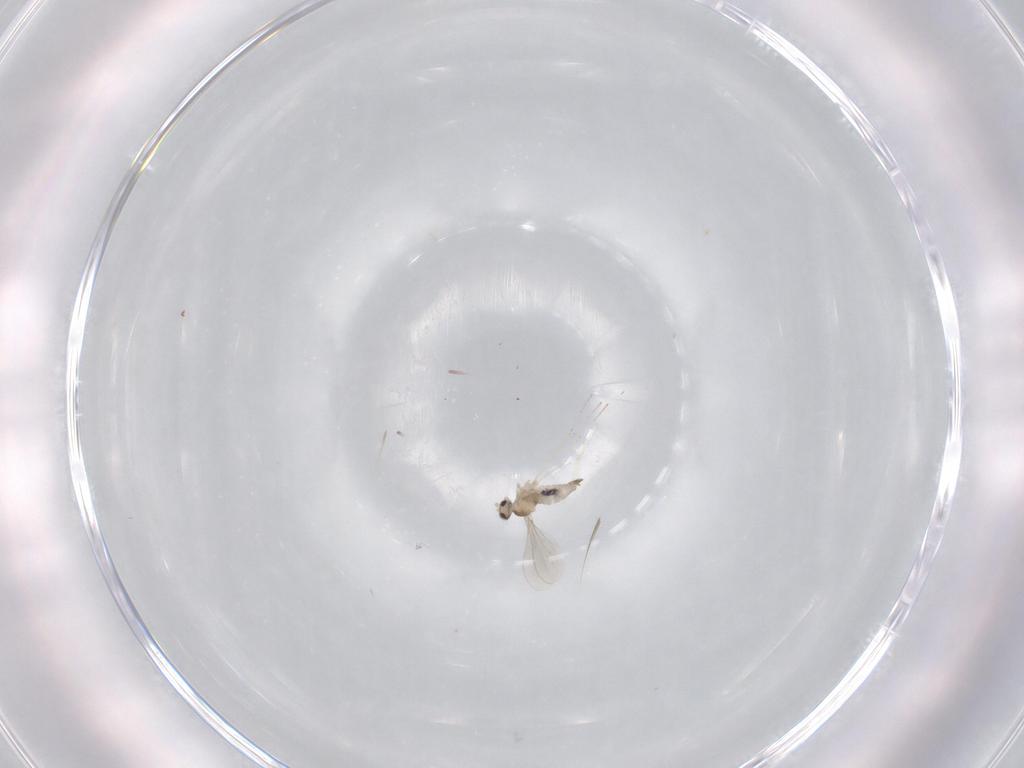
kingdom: Animalia
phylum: Arthropoda
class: Insecta
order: Diptera
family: Cecidomyiidae
